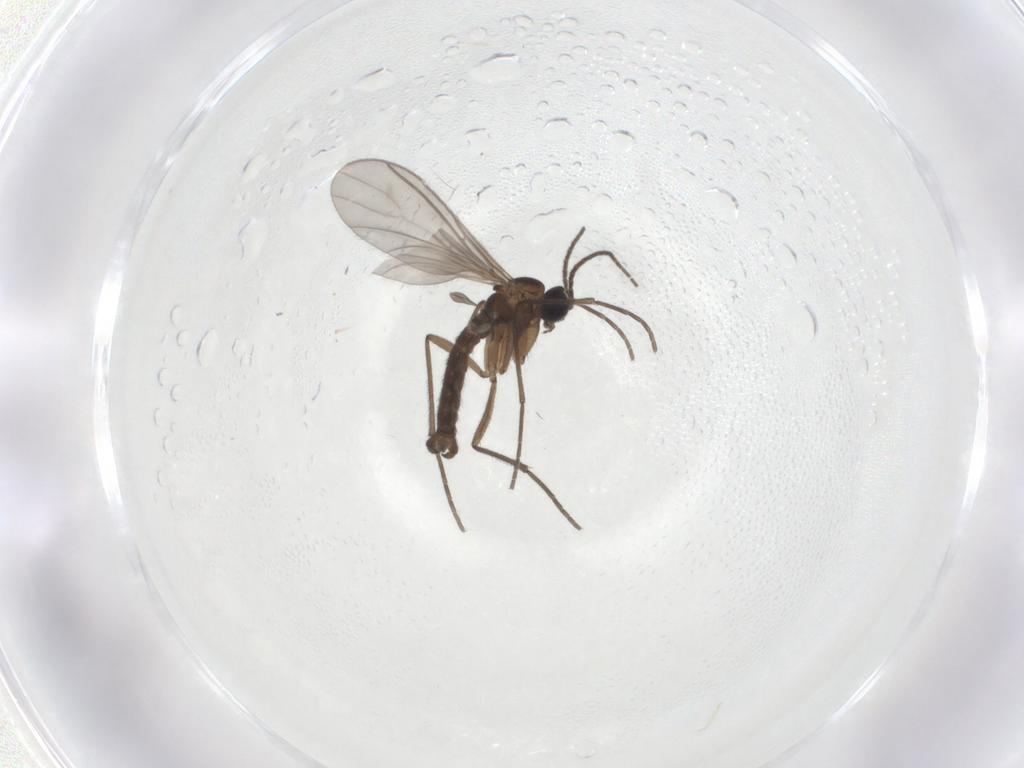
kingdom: Animalia
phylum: Arthropoda
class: Insecta
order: Diptera
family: Sciaridae
